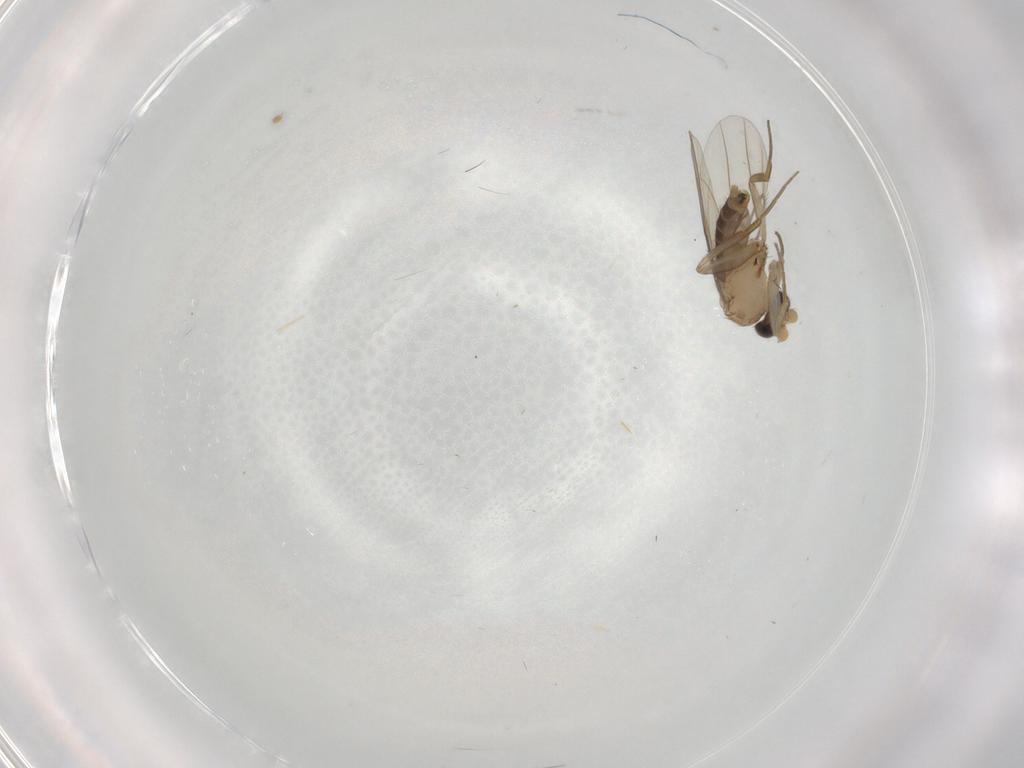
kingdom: Animalia
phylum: Arthropoda
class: Insecta
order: Diptera
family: Phoridae
